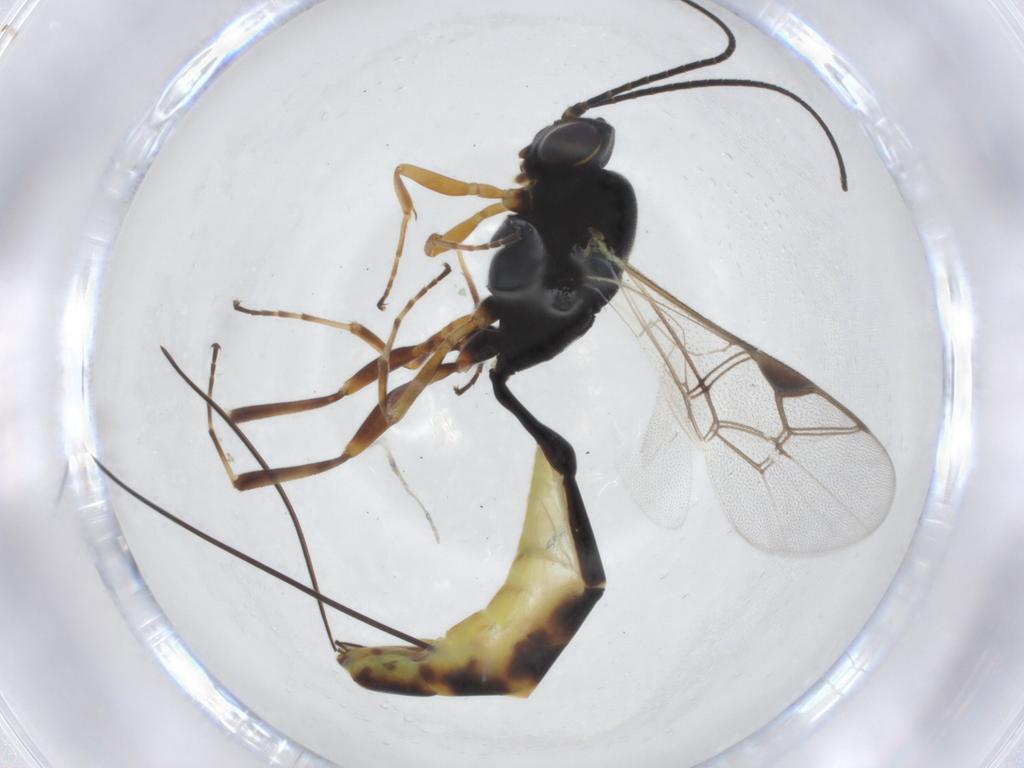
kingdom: Animalia
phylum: Arthropoda
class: Insecta
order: Hymenoptera
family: Ichneumonidae
